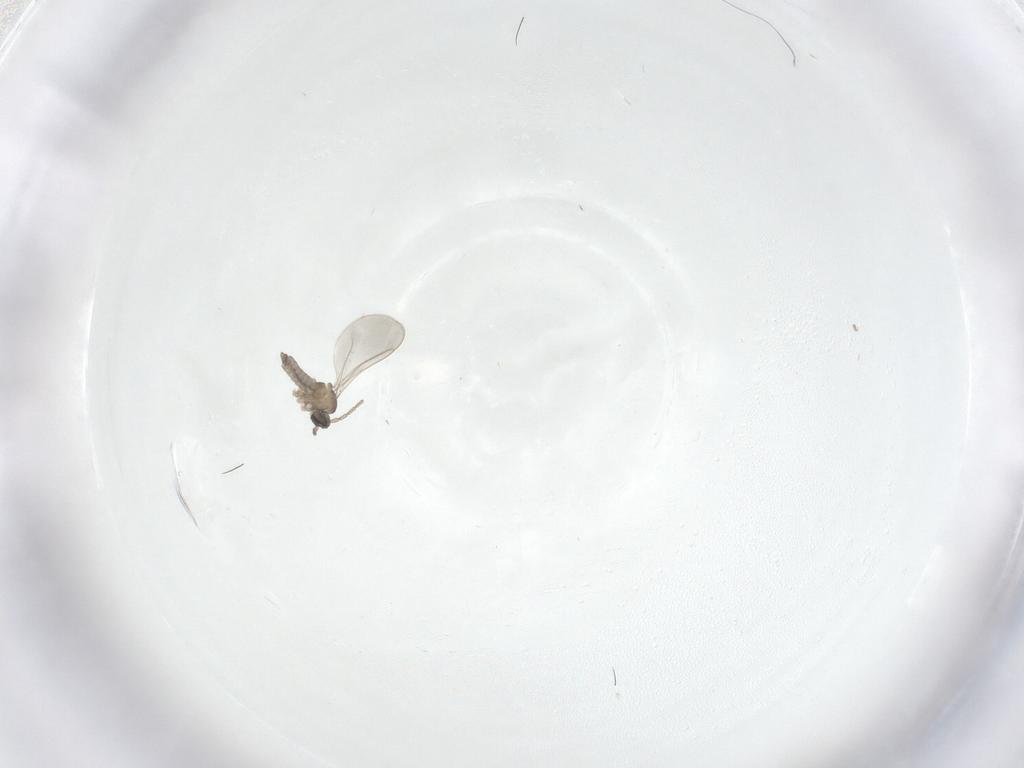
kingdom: Animalia
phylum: Arthropoda
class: Insecta
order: Diptera
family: Cecidomyiidae
